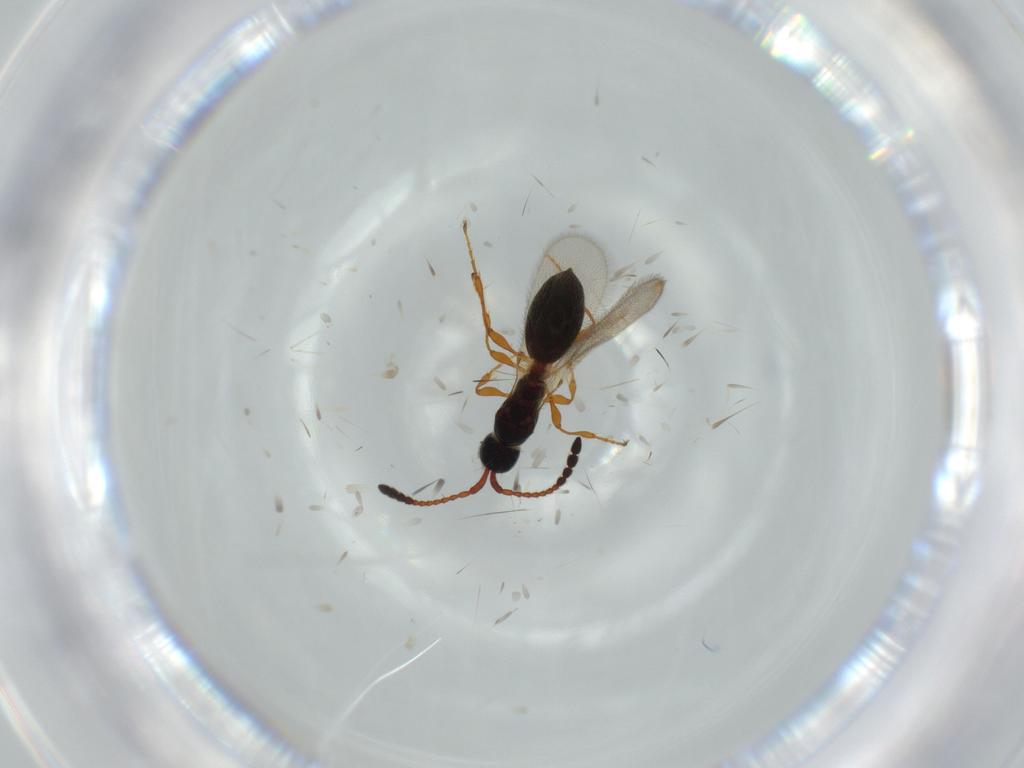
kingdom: Animalia
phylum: Arthropoda
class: Insecta
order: Hymenoptera
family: Diapriidae
